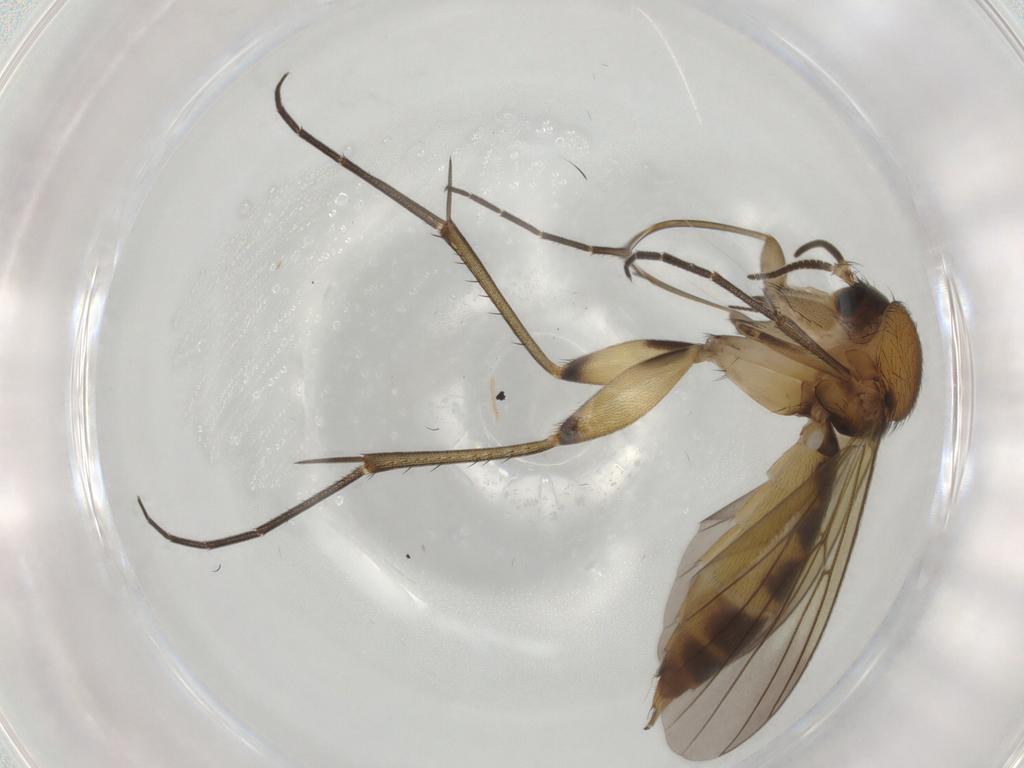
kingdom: Animalia
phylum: Arthropoda
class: Insecta
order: Diptera
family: Mycetophilidae
